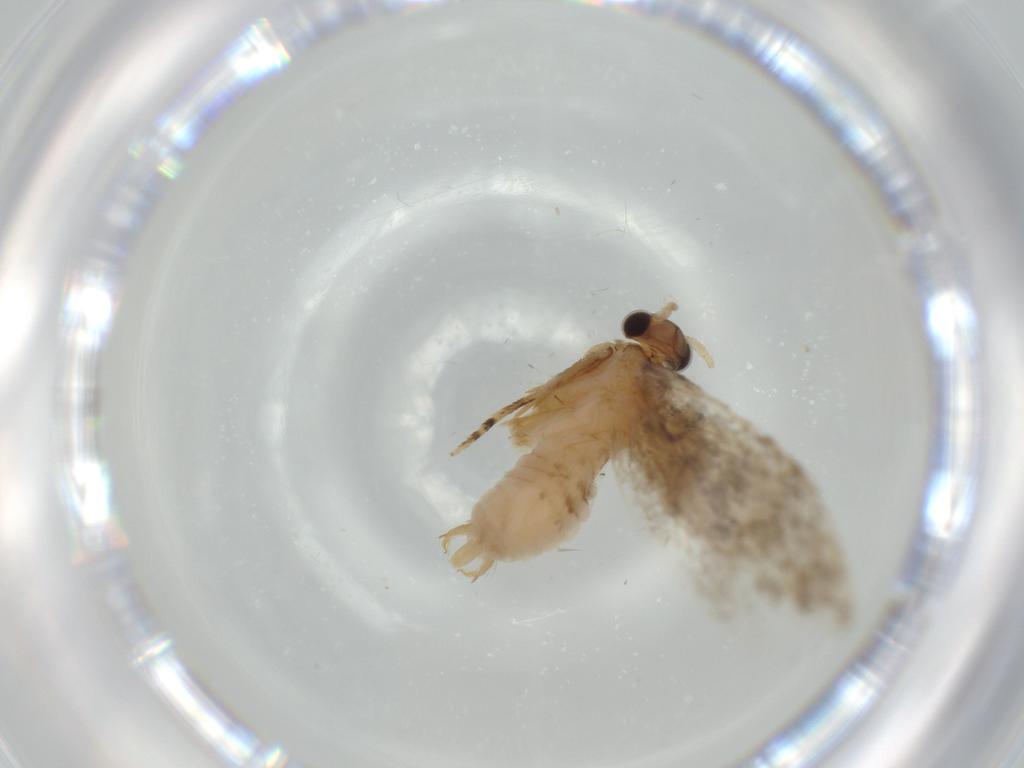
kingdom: Animalia
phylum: Arthropoda
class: Insecta
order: Lepidoptera
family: Tineidae
